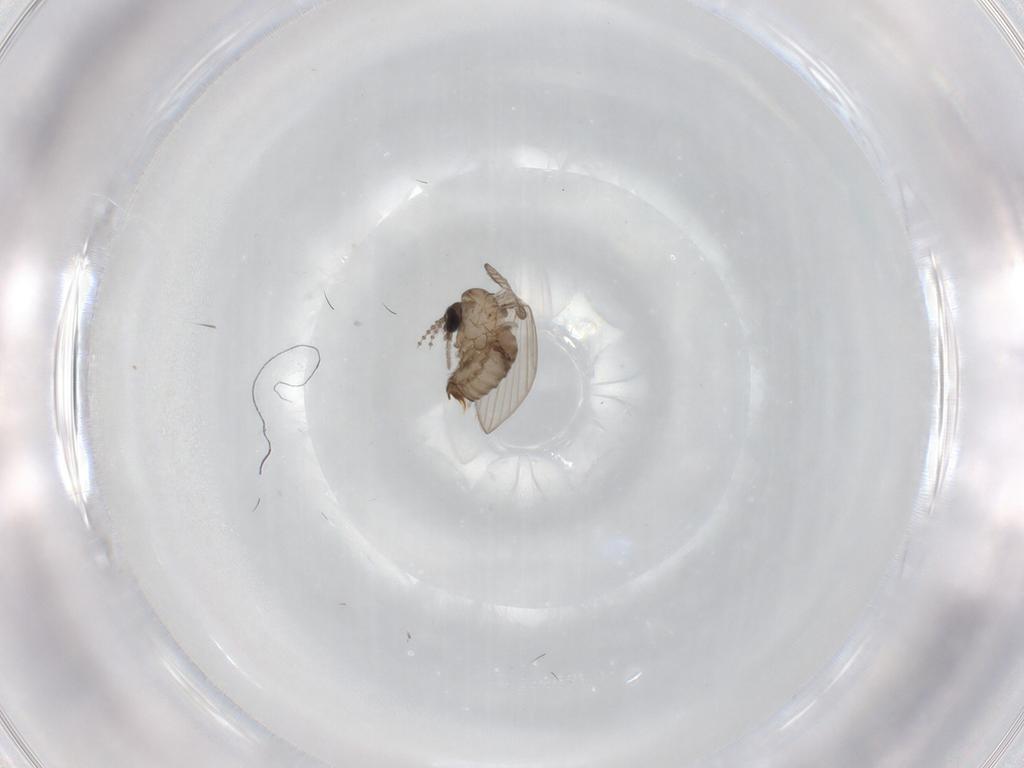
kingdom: Animalia
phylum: Arthropoda
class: Insecta
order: Diptera
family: Psychodidae
